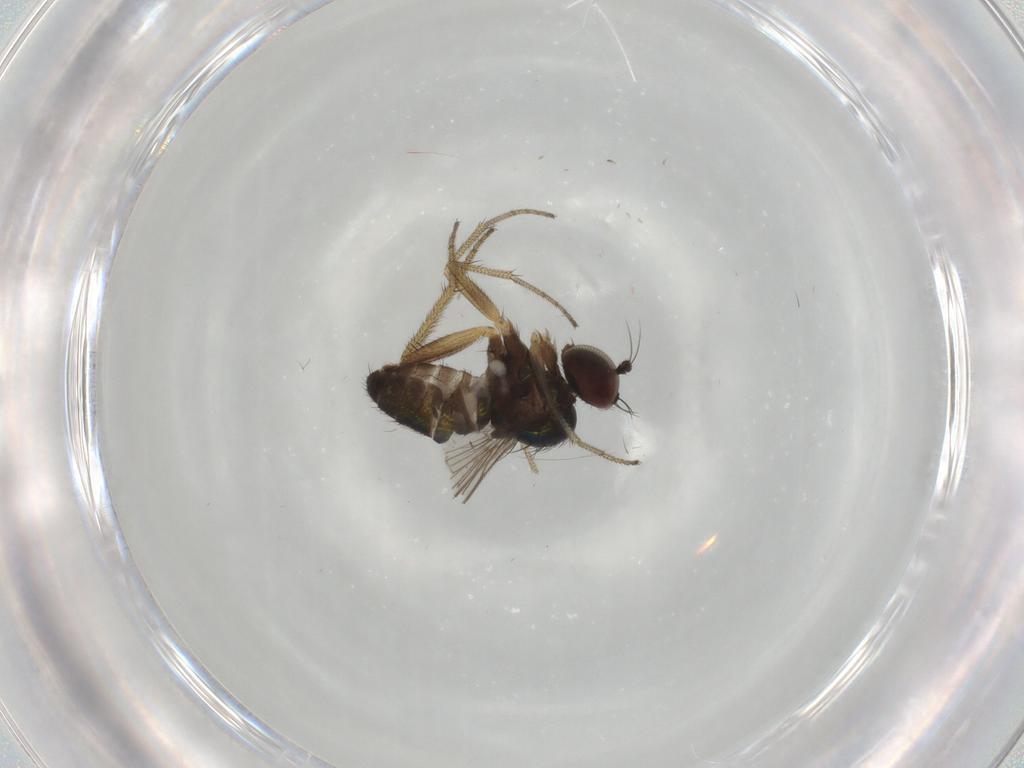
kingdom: Animalia
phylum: Arthropoda
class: Insecta
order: Diptera
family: Dolichopodidae
